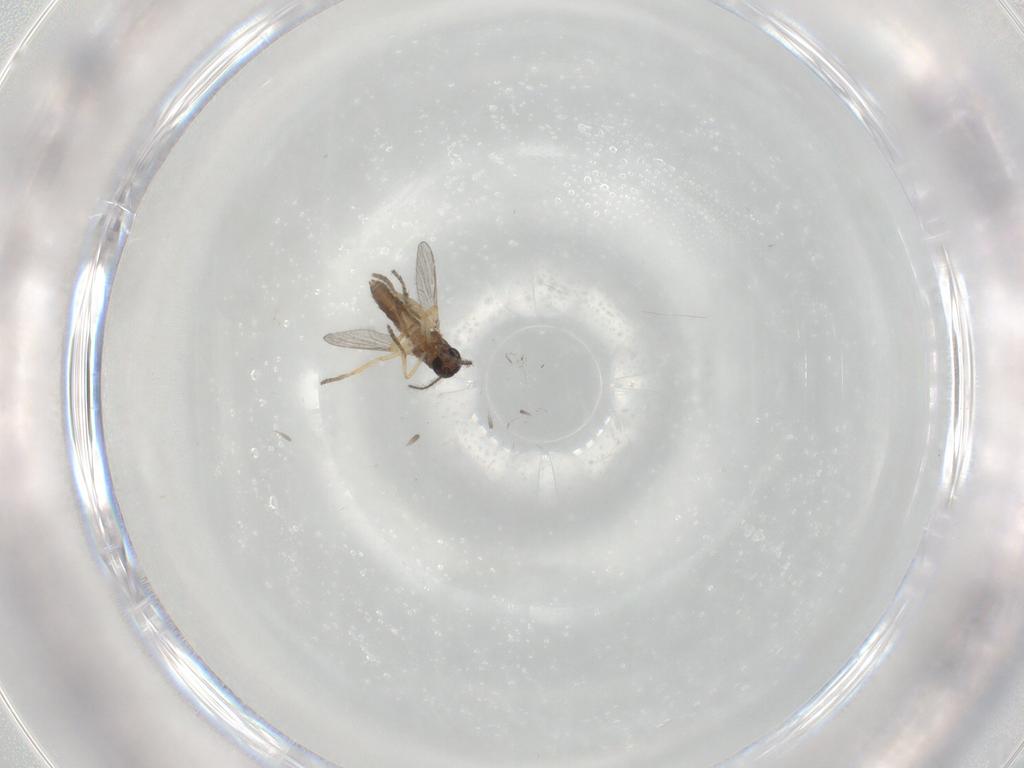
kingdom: Animalia
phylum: Arthropoda
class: Insecta
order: Diptera
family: Ceratopogonidae
